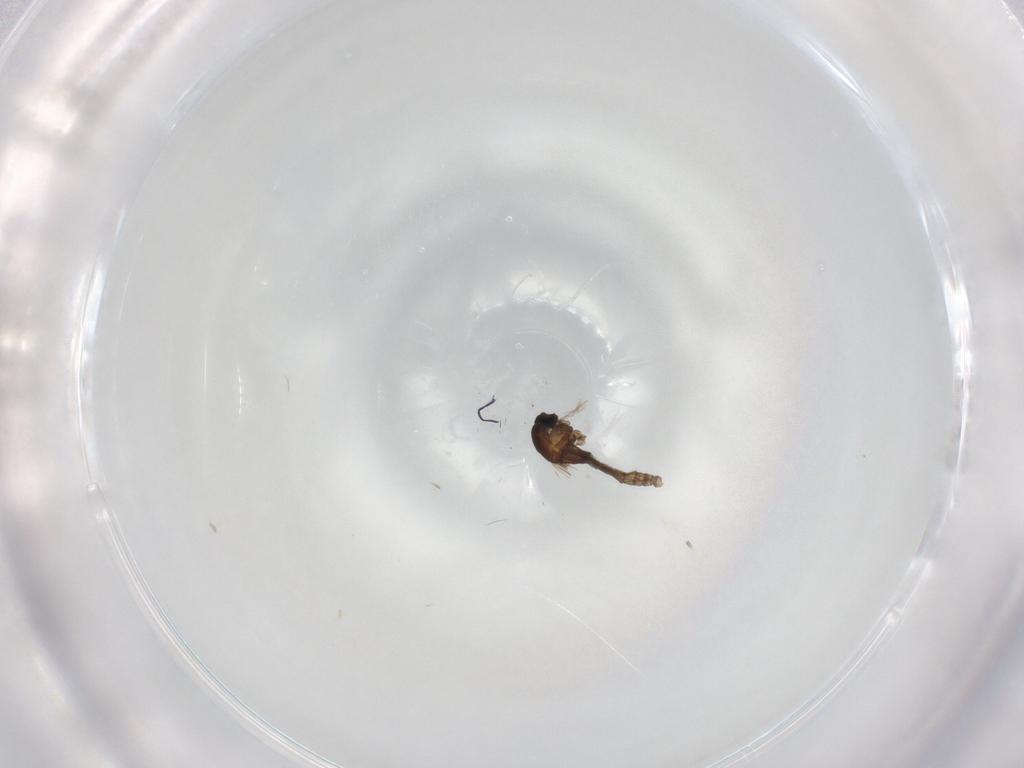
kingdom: Animalia
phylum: Arthropoda
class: Insecta
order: Diptera
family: Cecidomyiidae
